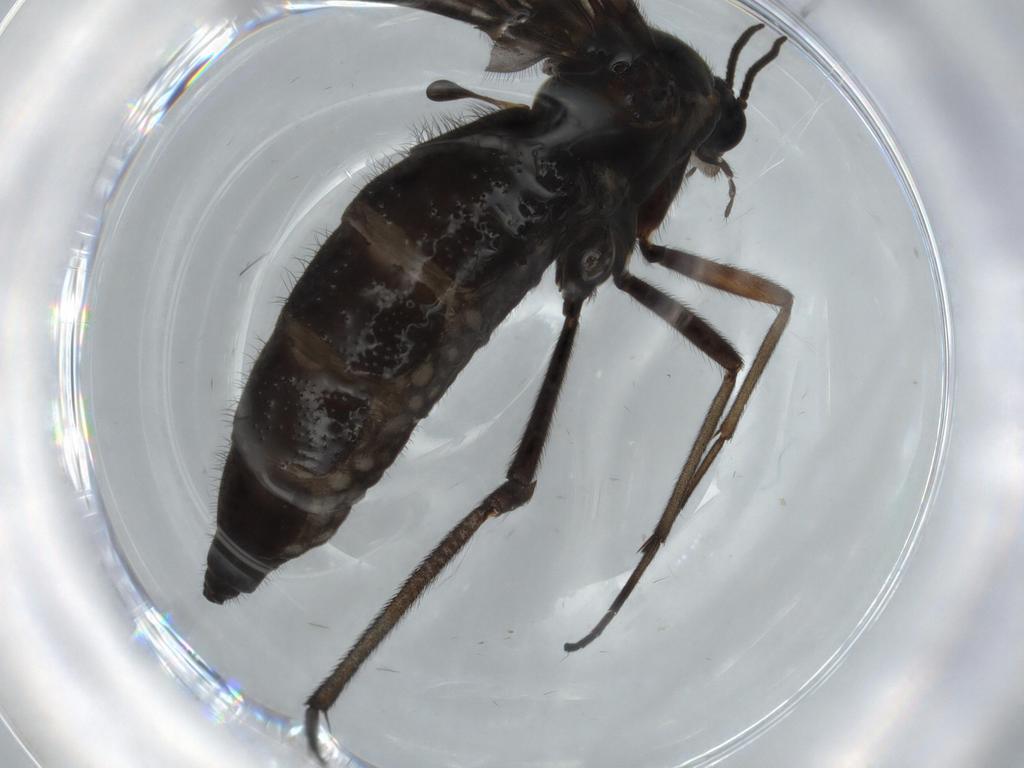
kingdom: Animalia
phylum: Arthropoda
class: Insecta
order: Diptera
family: Sciaridae
